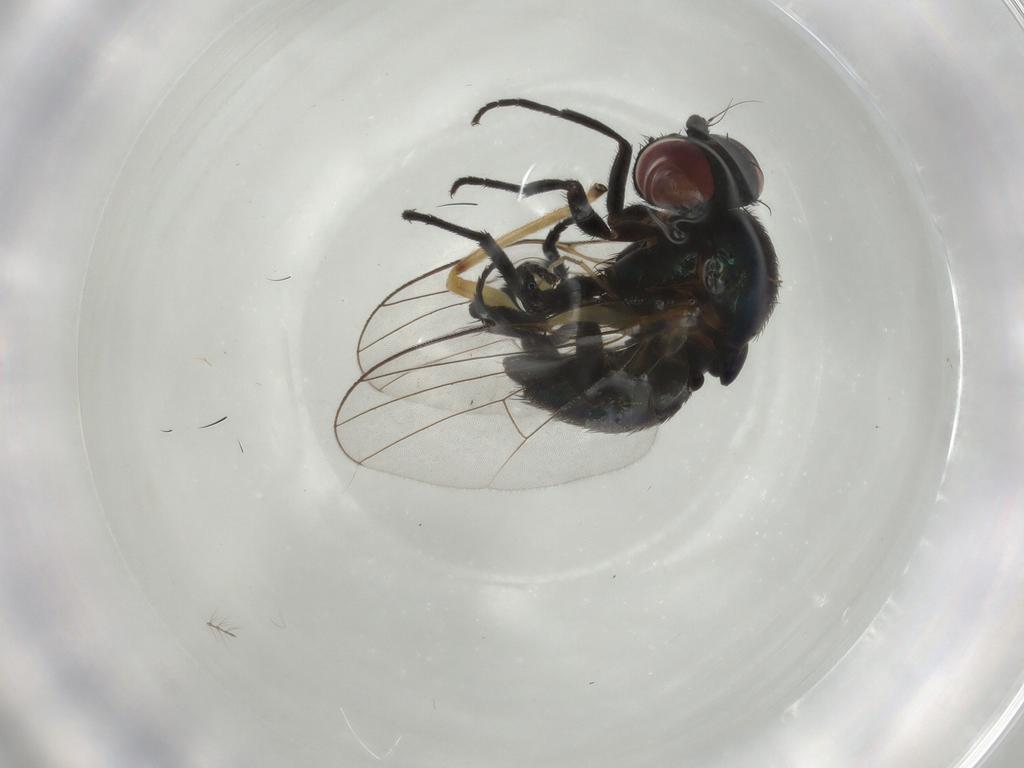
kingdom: Animalia
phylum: Arthropoda
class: Insecta
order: Diptera
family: Agromyzidae
